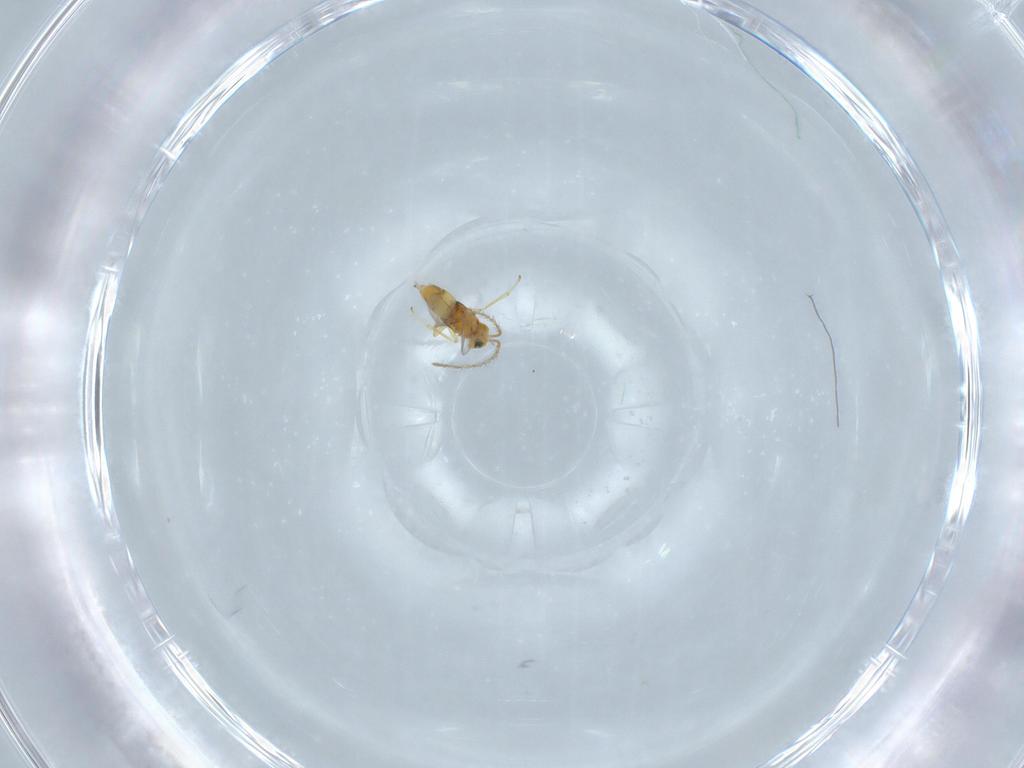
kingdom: Animalia
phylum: Arthropoda
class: Insecta
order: Hymenoptera
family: Encyrtidae
